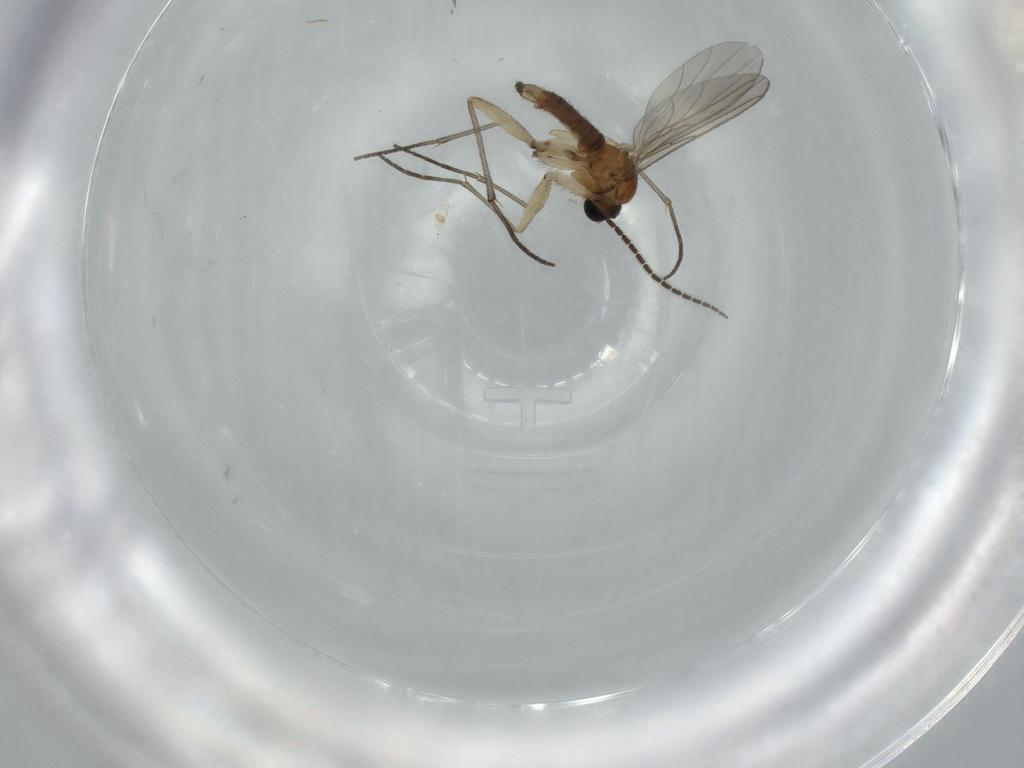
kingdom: Animalia
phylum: Arthropoda
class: Insecta
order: Diptera
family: Sciaridae
